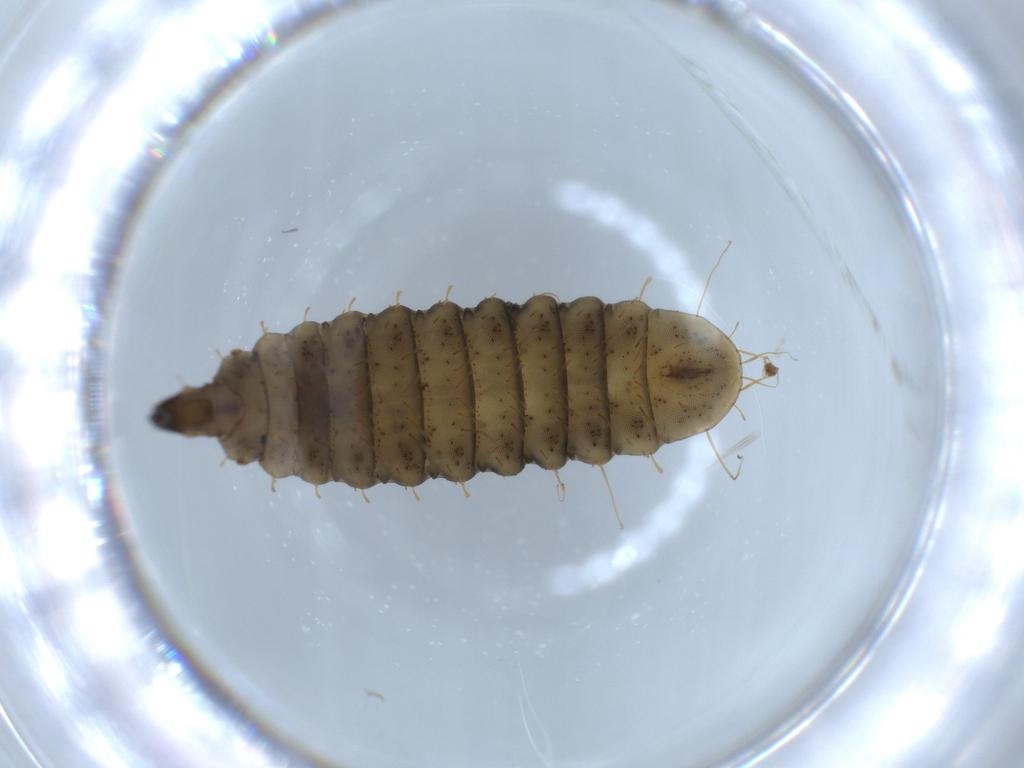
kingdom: Animalia
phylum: Arthropoda
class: Arachnida
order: Sarcoptiformes
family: Oppiidae
